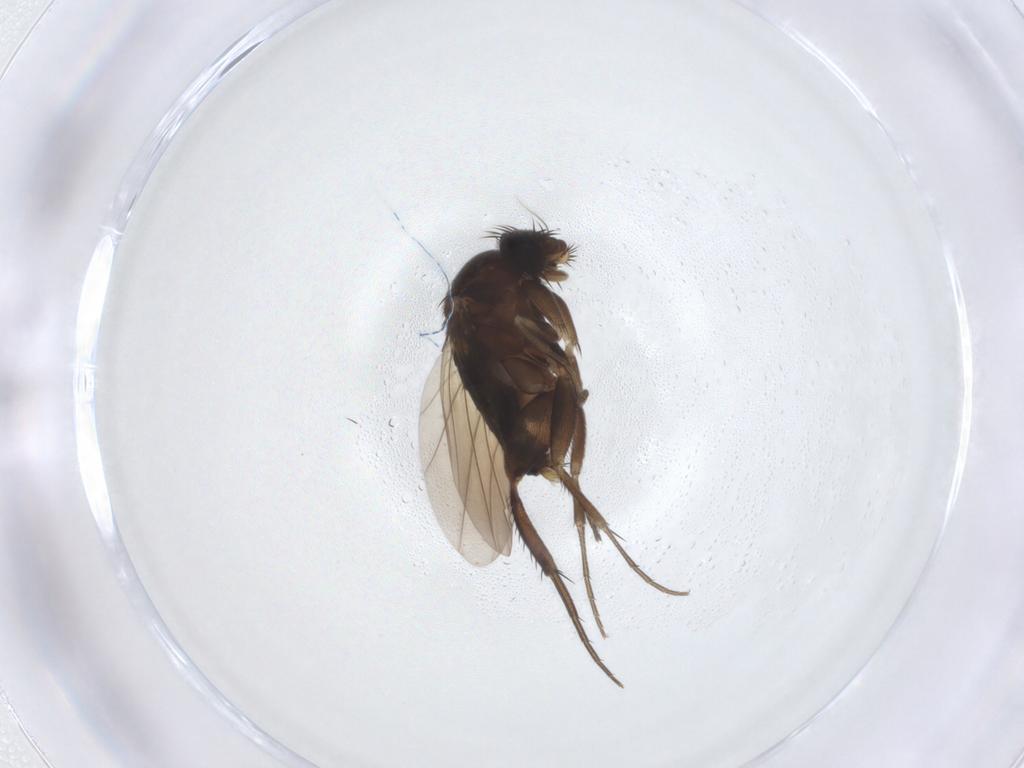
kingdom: Animalia
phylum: Arthropoda
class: Insecta
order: Diptera
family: Phoridae
